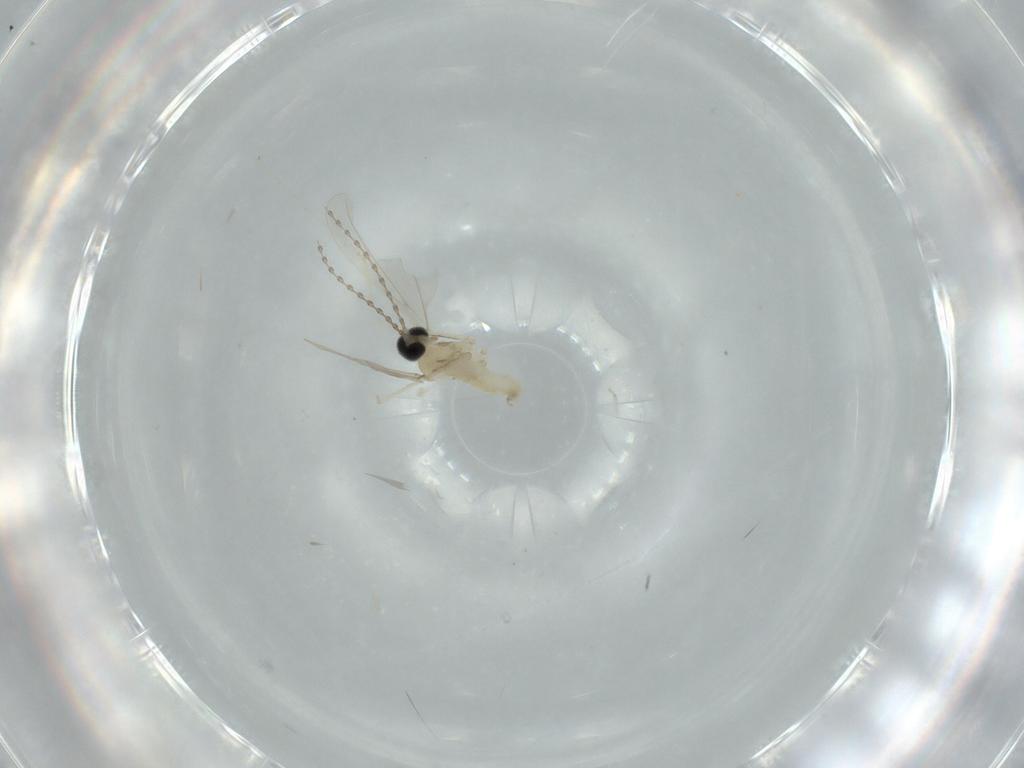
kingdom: Animalia
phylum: Arthropoda
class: Insecta
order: Diptera
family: Cecidomyiidae
